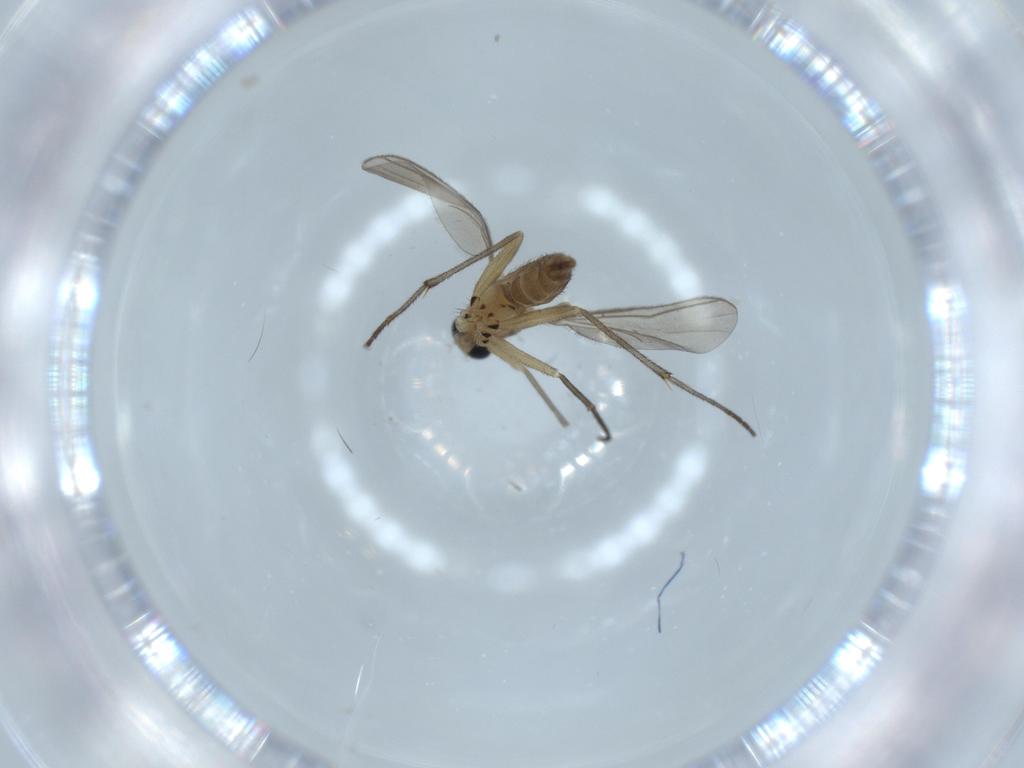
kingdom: Animalia
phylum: Arthropoda
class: Insecta
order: Diptera
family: Sciaridae
